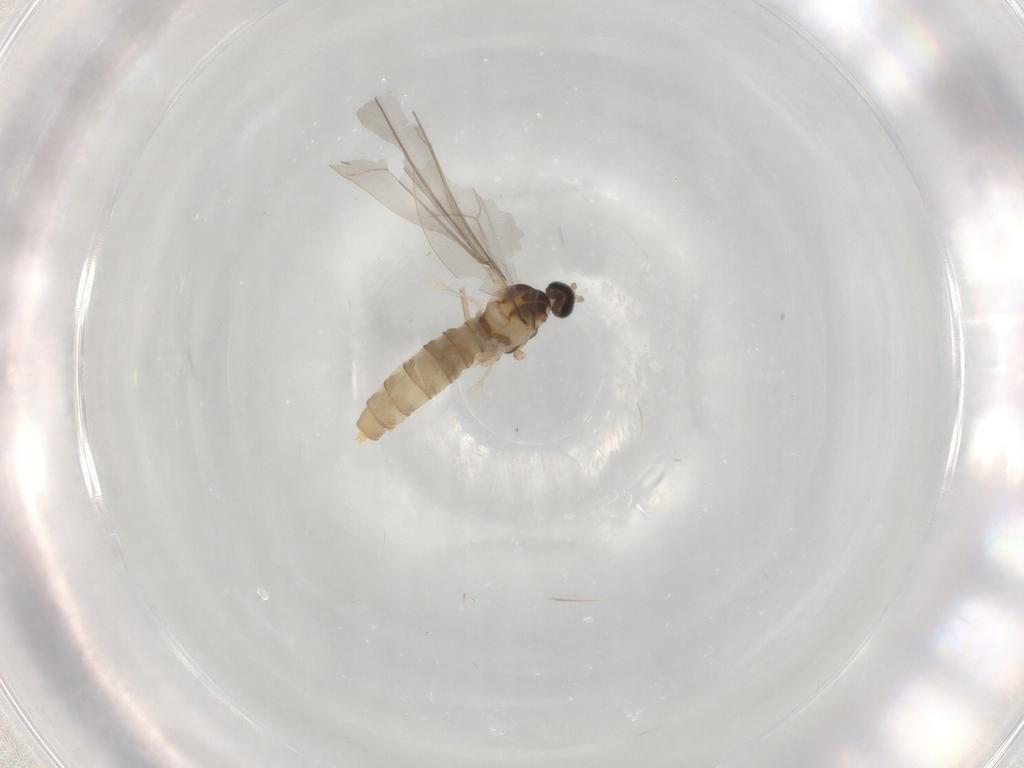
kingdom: Animalia
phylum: Arthropoda
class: Insecta
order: Diptera
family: Cecidomyiidae
